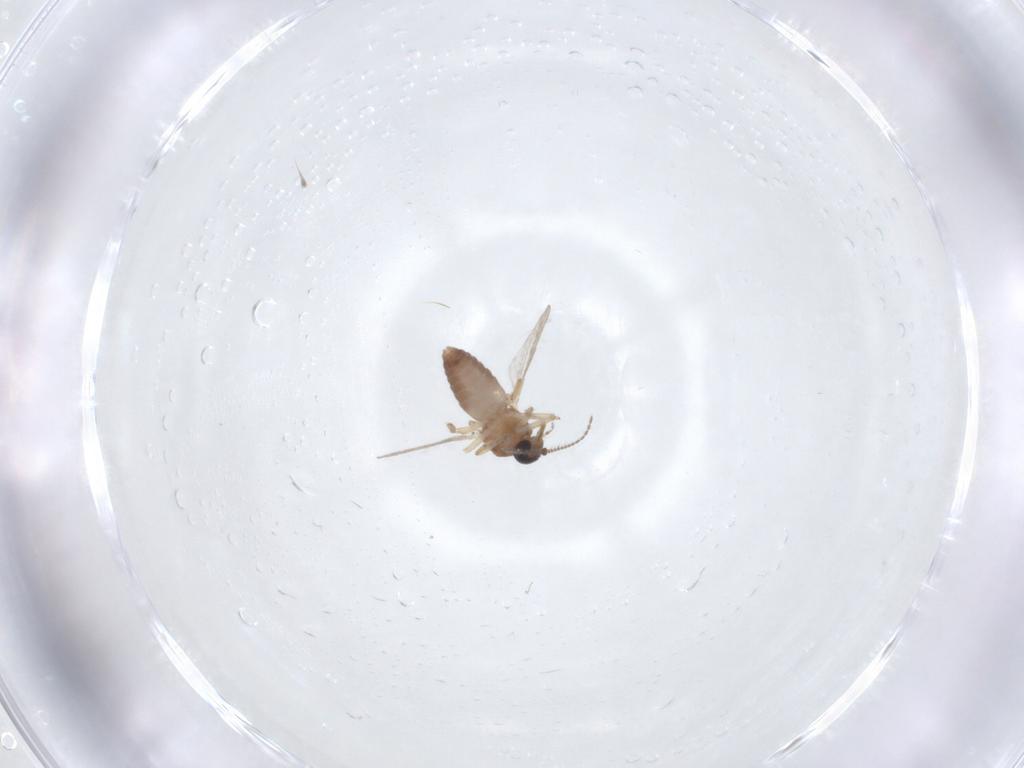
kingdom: Animalia
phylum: Arthropoda
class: Insecta
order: Diptera
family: Ceratopogonidae
